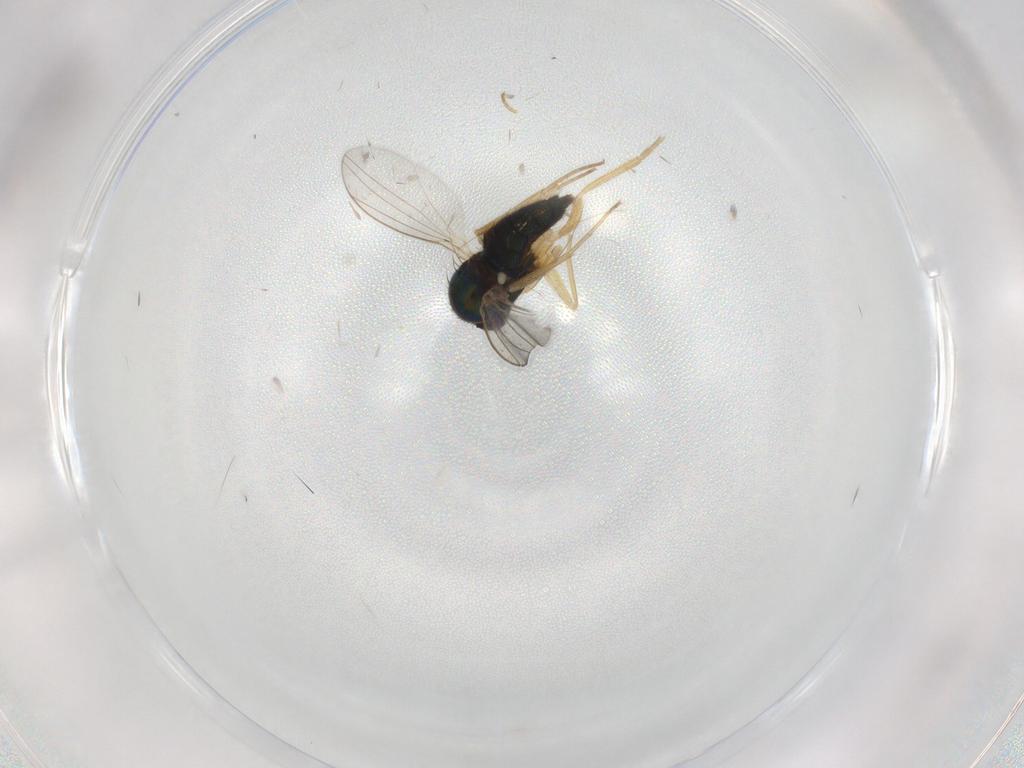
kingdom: Animalia
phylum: Arthropoda
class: Insecta
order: Diptera
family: Dolichopodidae
